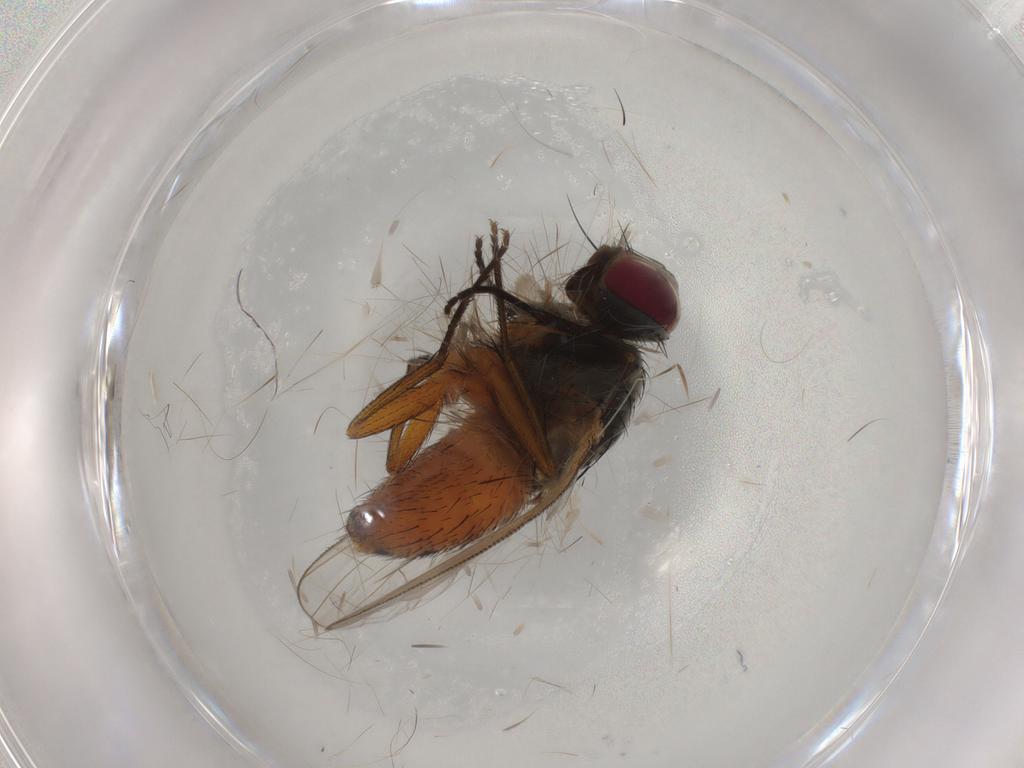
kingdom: Animalia
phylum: Arthropoda
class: Insecta
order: Diptera
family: Muscidae
